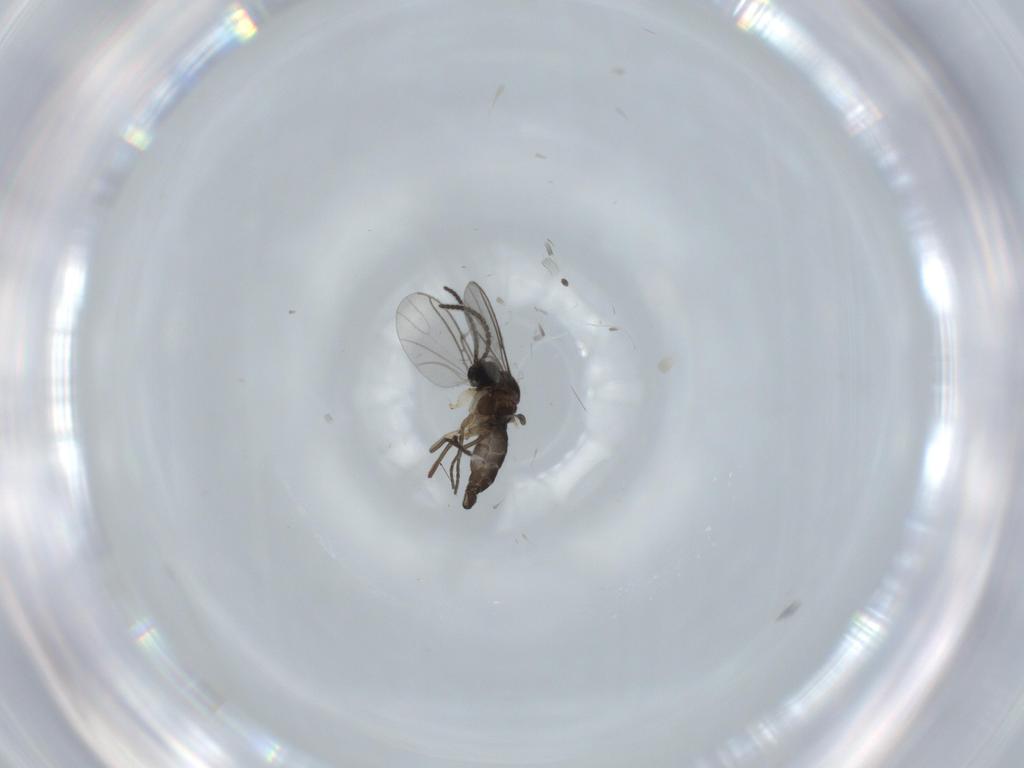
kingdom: Animalia
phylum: Arthropoda
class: Insecta
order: Diptera
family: Sciaridae
